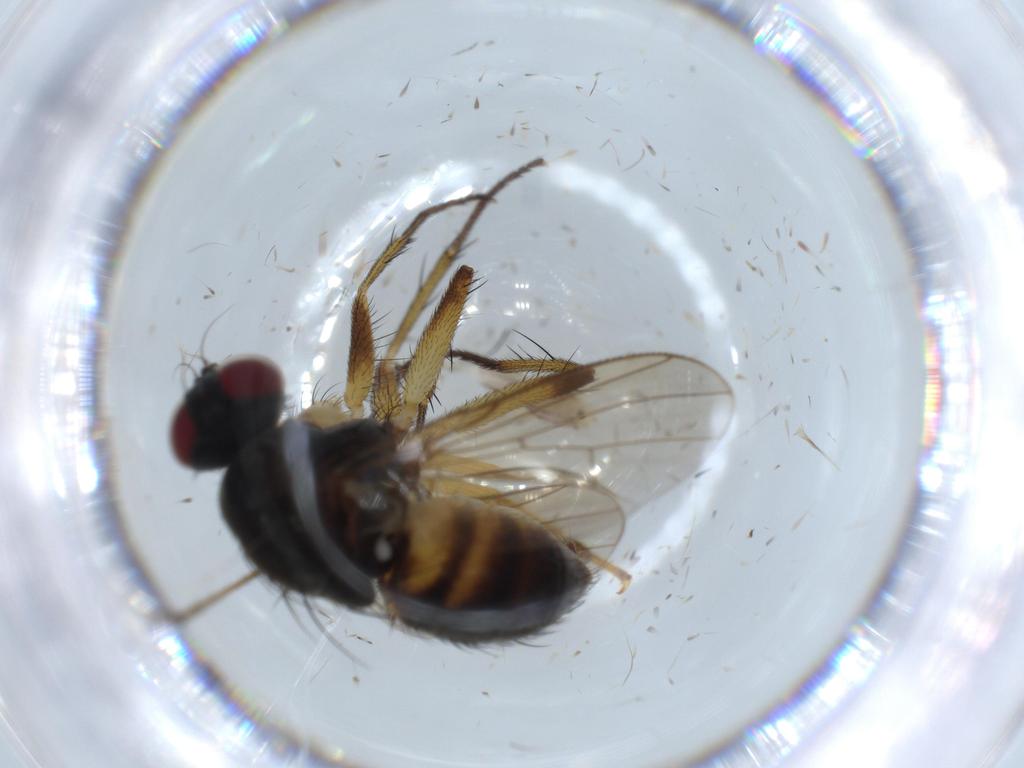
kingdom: Animalia
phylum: Arthropoda
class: Insecta
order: Diptera
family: Muscidae
